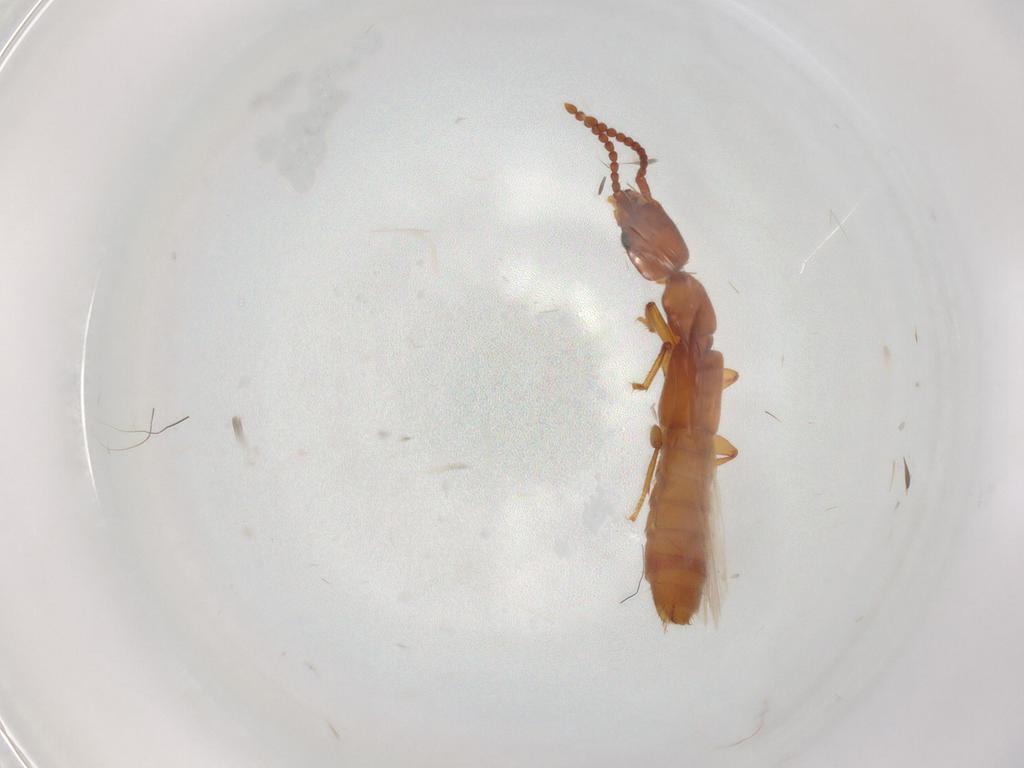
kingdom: Animalia
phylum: Arthropoda
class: Insecta
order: Coleoptera
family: Staphylinidae
